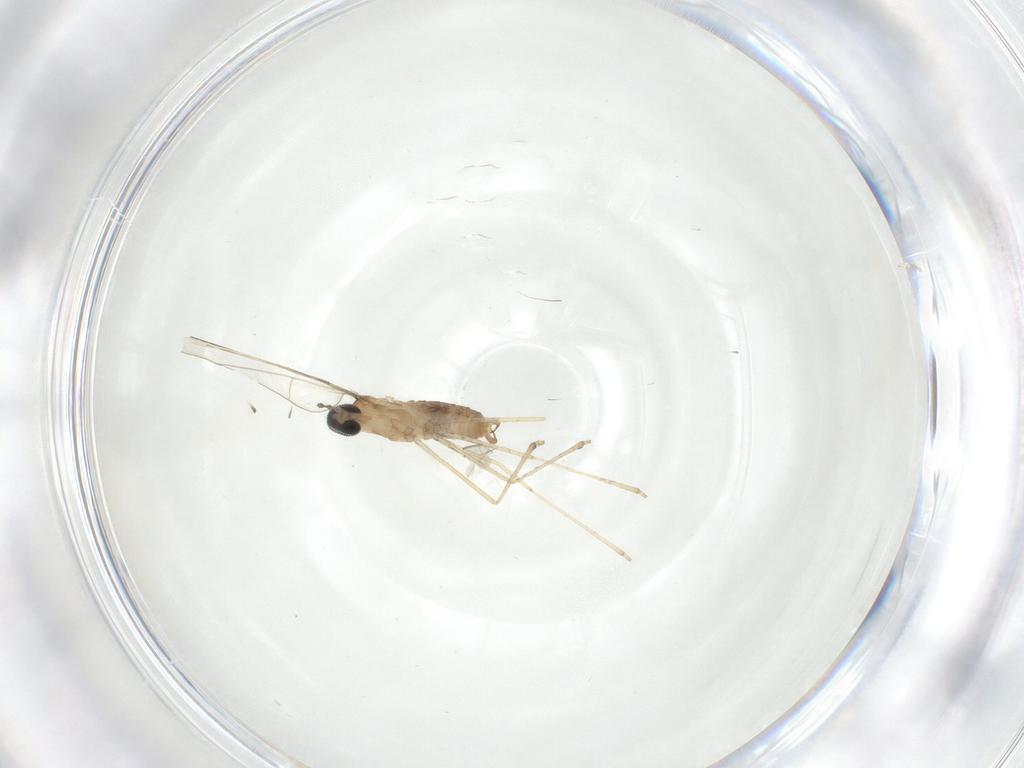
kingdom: Animalia
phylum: Arthropoda
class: Insecta
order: Diptera
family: Sciaridae
